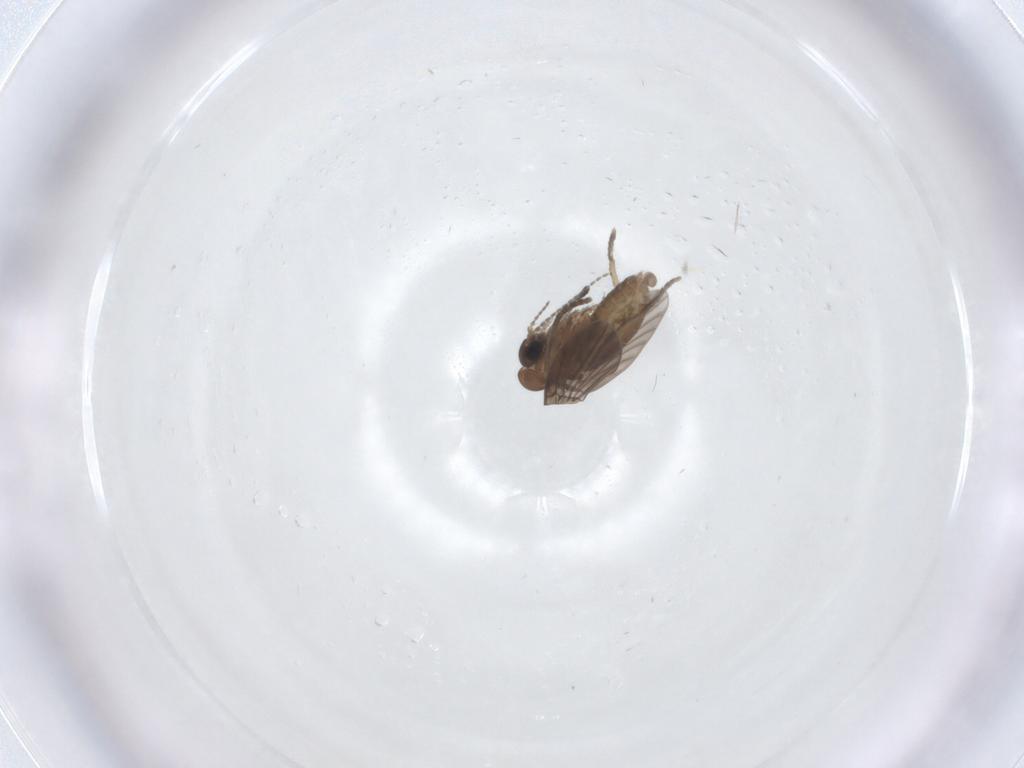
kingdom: Animalia
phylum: Arthropoda
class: Insecta
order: Diptera
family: Psychodidae
